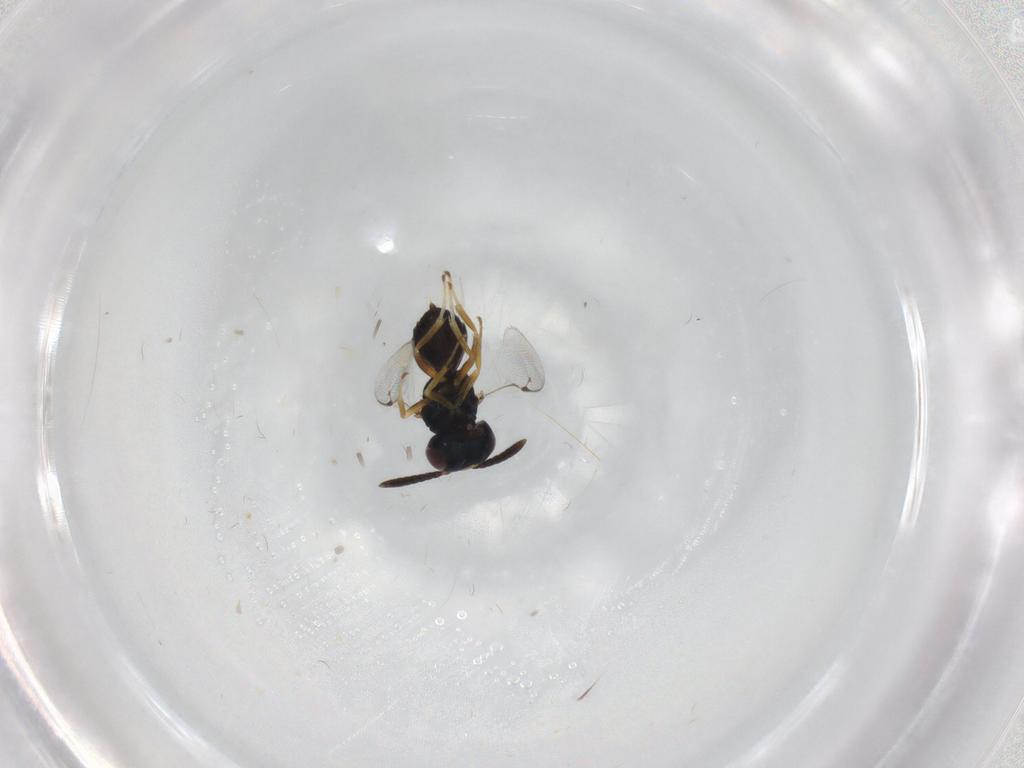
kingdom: Animalia
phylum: Arthropoda
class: Insecta
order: Hymenoptera
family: Pteromalidae
